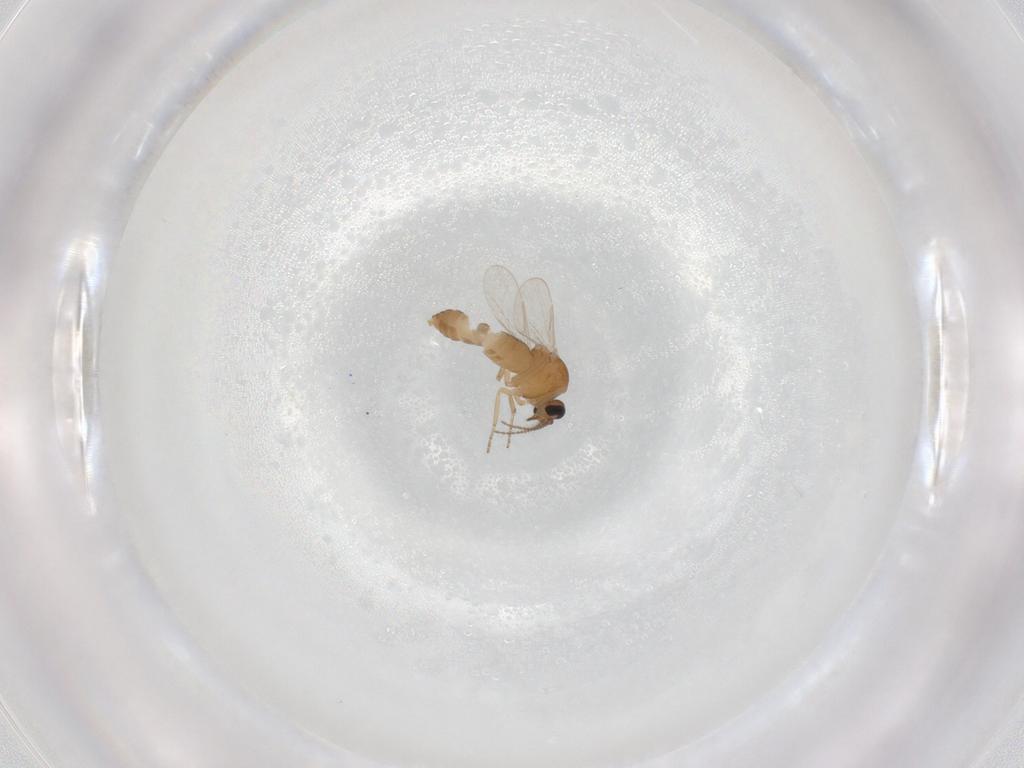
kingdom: Animalia
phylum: Arthropoda
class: Insecta
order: Diptera
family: Ceratopogonidae
